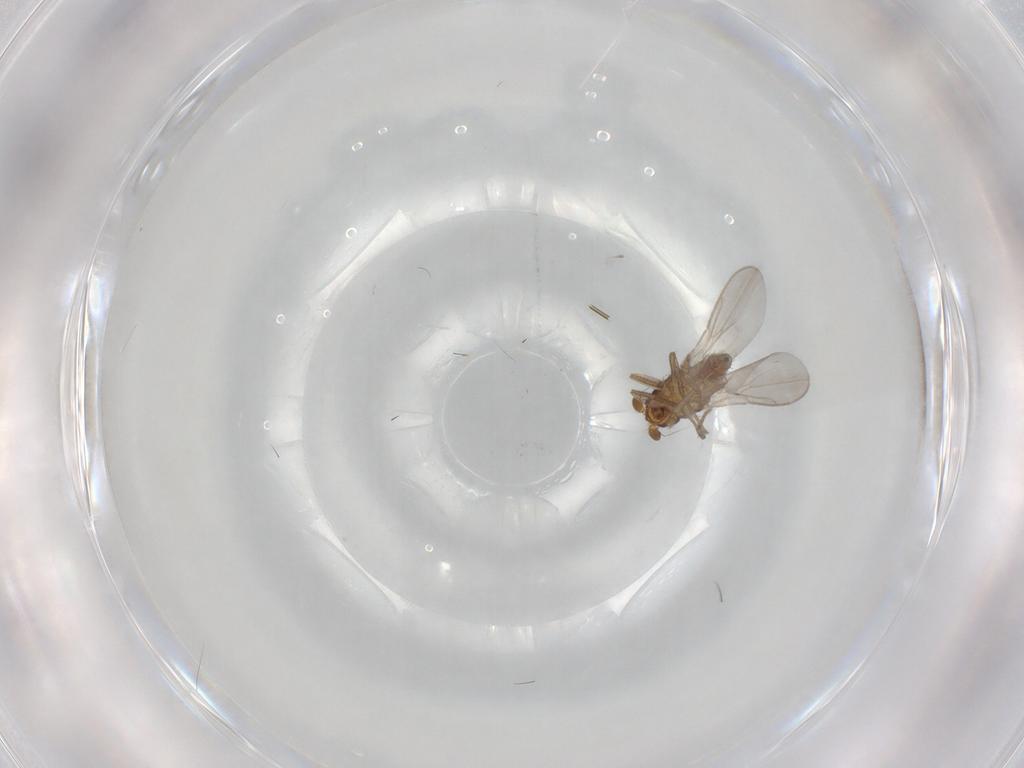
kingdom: Animalia
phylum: Arthropoda
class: Insecta
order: Diptera
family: Sphaeroceridae
